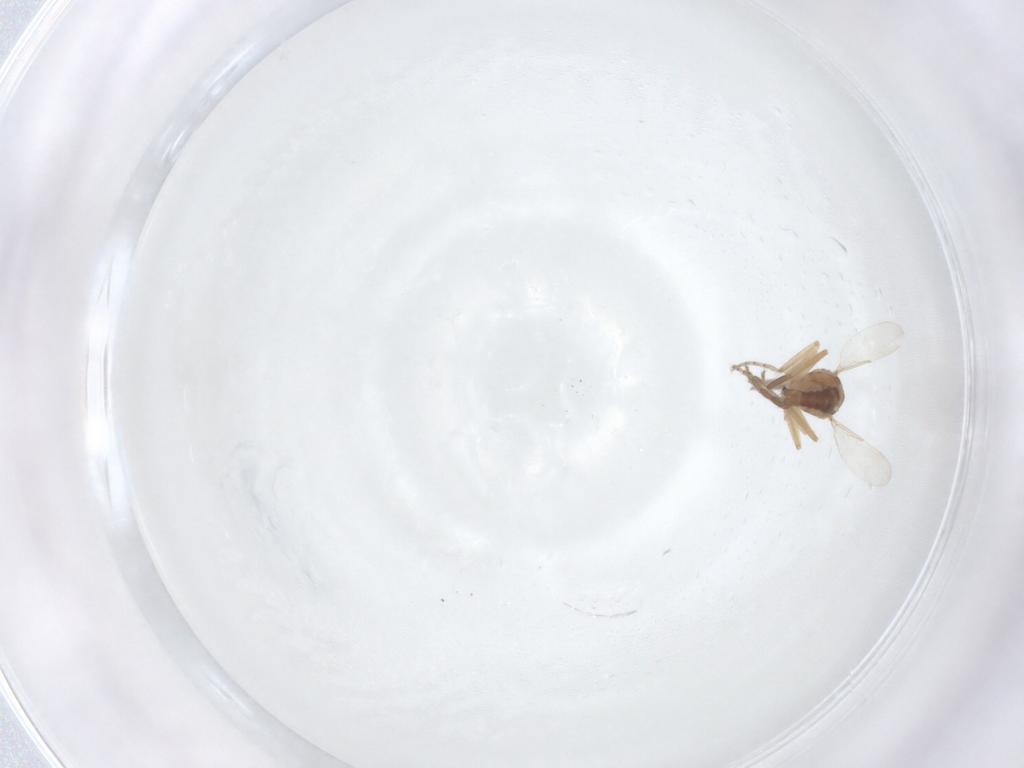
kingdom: Animalia
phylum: Arthropoda
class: Insecta
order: Diptera
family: Ceratopogonidae
